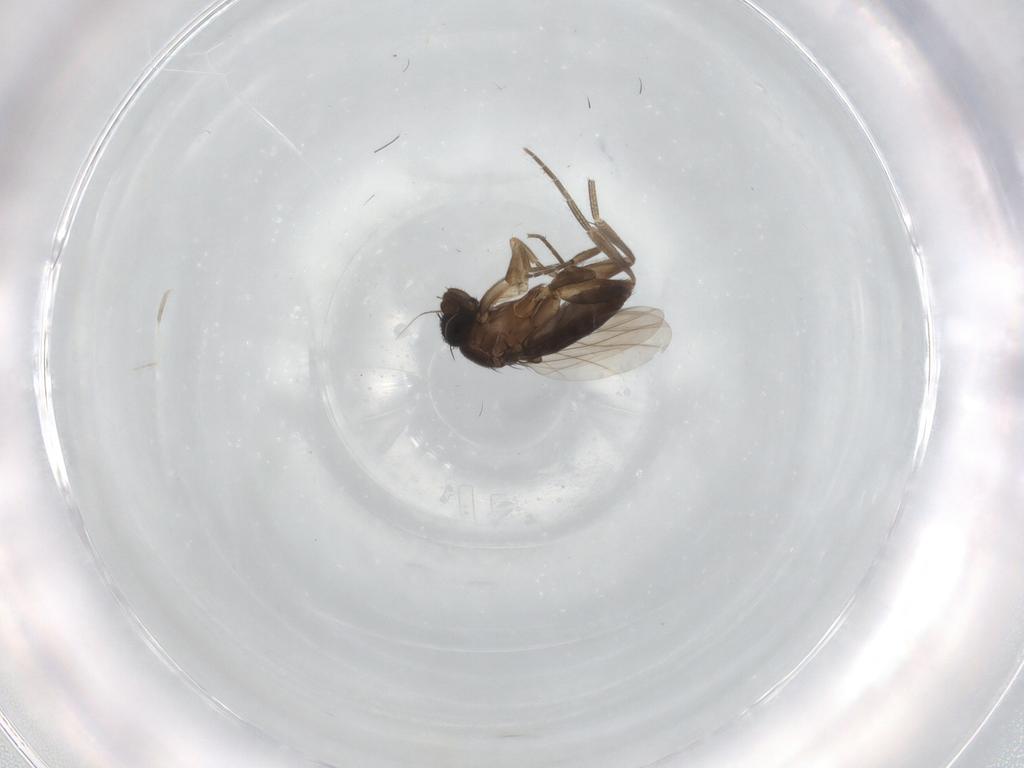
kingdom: Animalia
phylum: Arthropoda
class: Insecta
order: Diptera
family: Phoridae
